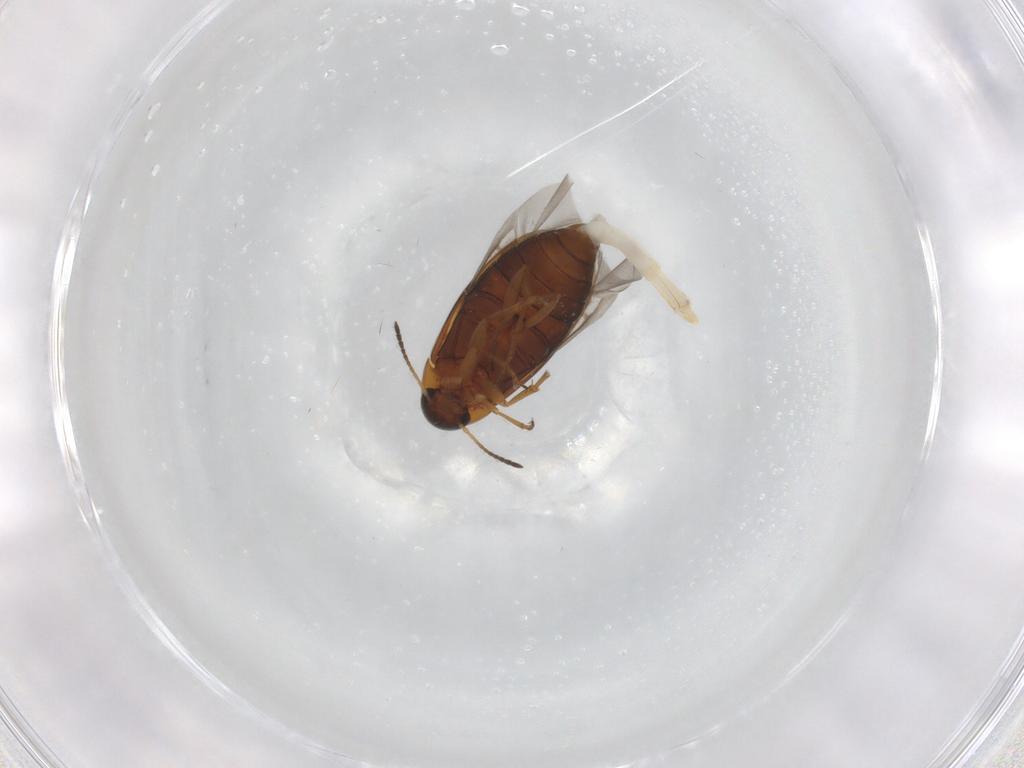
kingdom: Animalia
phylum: Arthropoda
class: Insecta
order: Coleoptera
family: Scraptiidae
